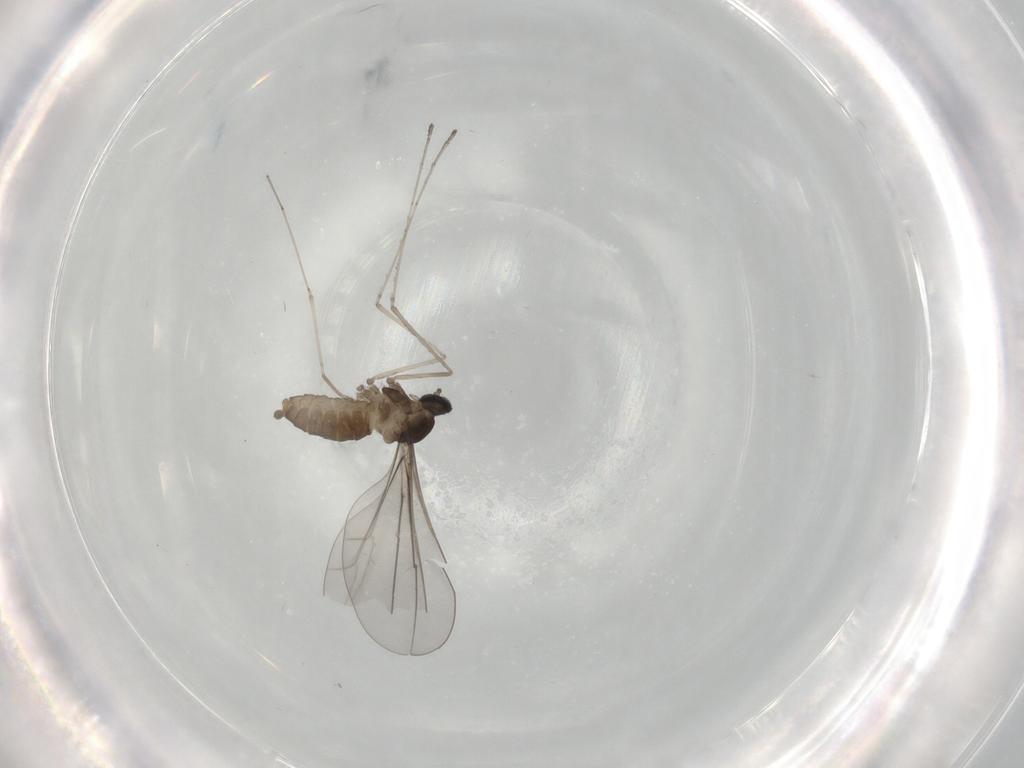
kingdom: Animalia
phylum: Arthropoda
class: Insecta
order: Diptera
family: Cecidomyiidae
